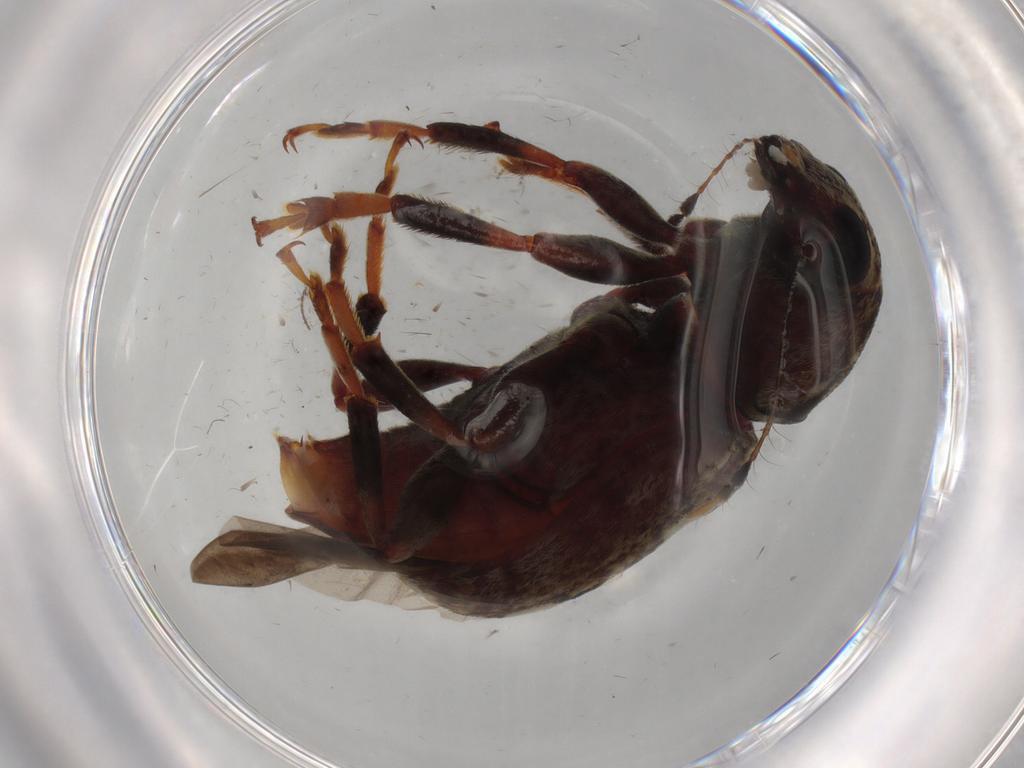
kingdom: Animalia
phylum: Arthropoda
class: Insecta
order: Coleoptera
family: Anthribidae
